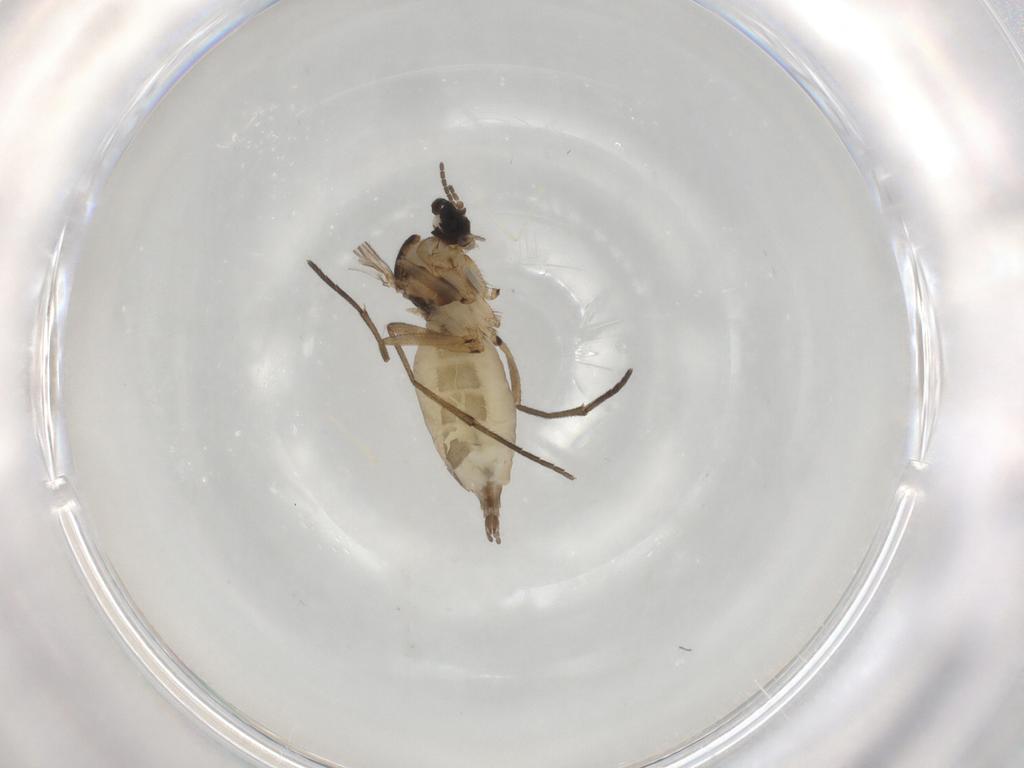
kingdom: Animalia
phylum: Arthropoda
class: Insecta
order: Diptera
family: Sciaridae
